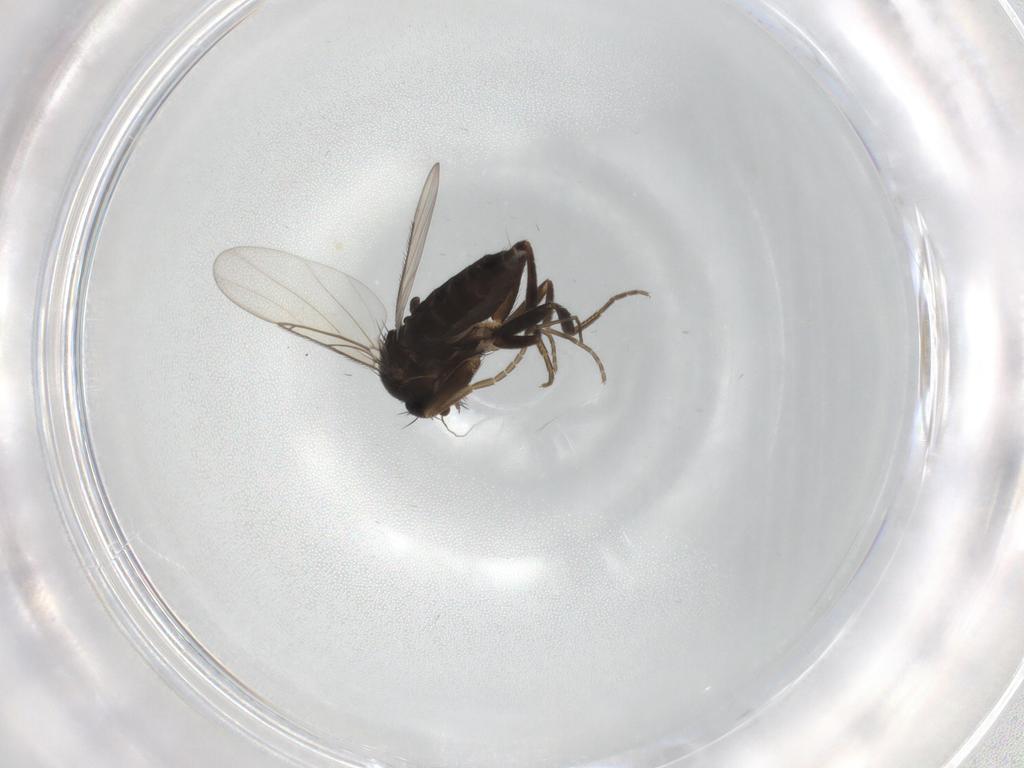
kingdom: Animalia
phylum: Arthropoda
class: Insecta
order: Diptera
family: Phoridae
